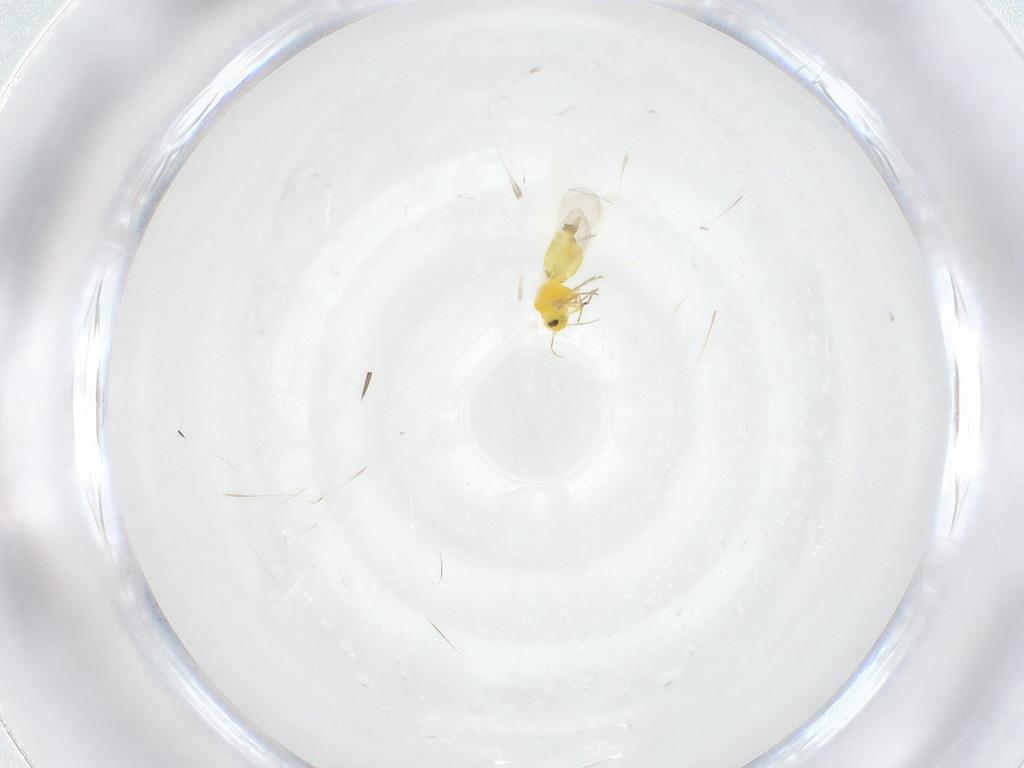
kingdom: Animalia
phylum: Arthropoda
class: Insecta
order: Hemiptera
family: Aleyrodidae
